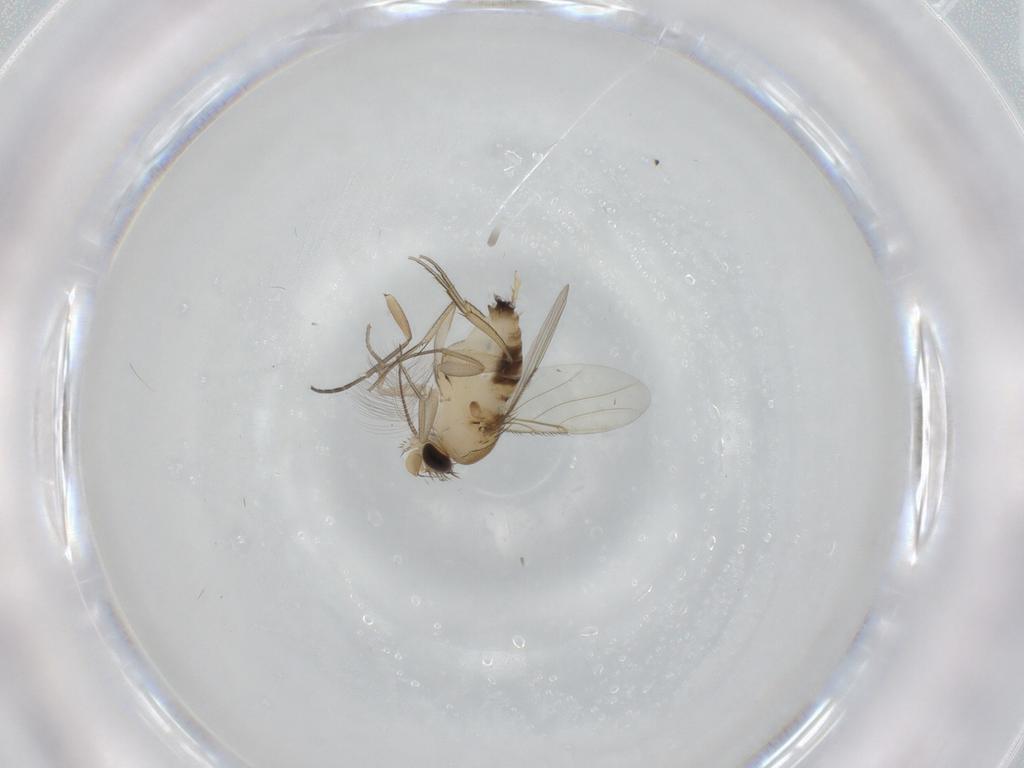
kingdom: Animalia
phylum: Arthropoda
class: Insecta
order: Diptera
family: Phoridae
